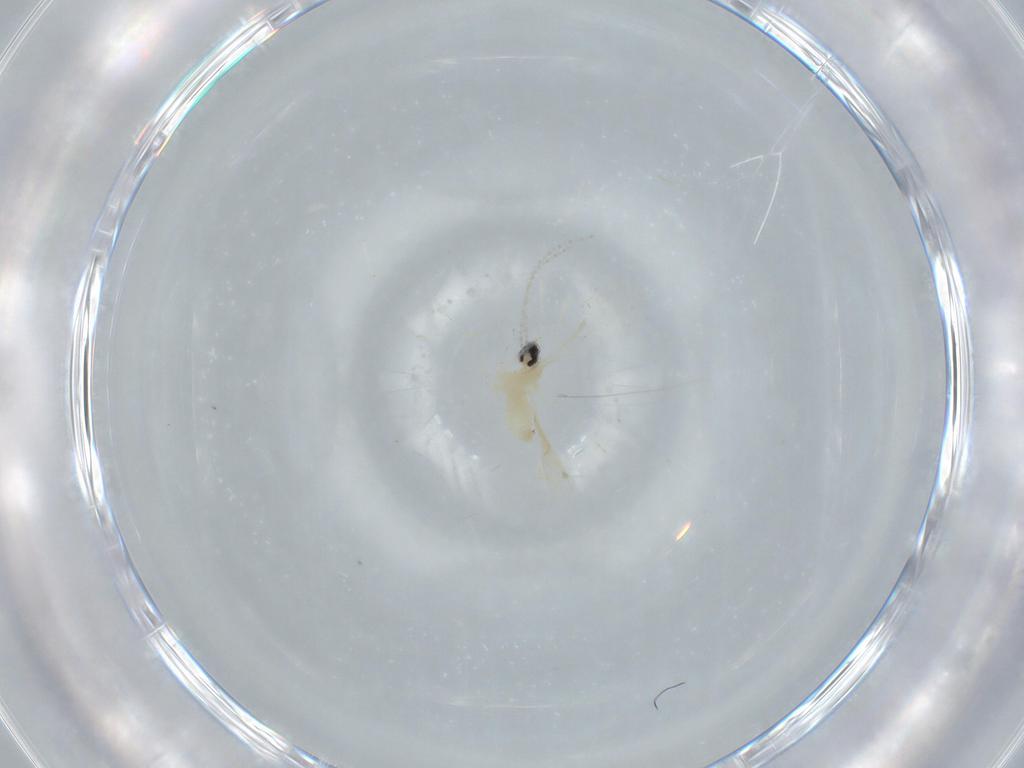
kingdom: Animalia
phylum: Arthropoda
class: Insecta
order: Diptera
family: Cecidomyiidae
